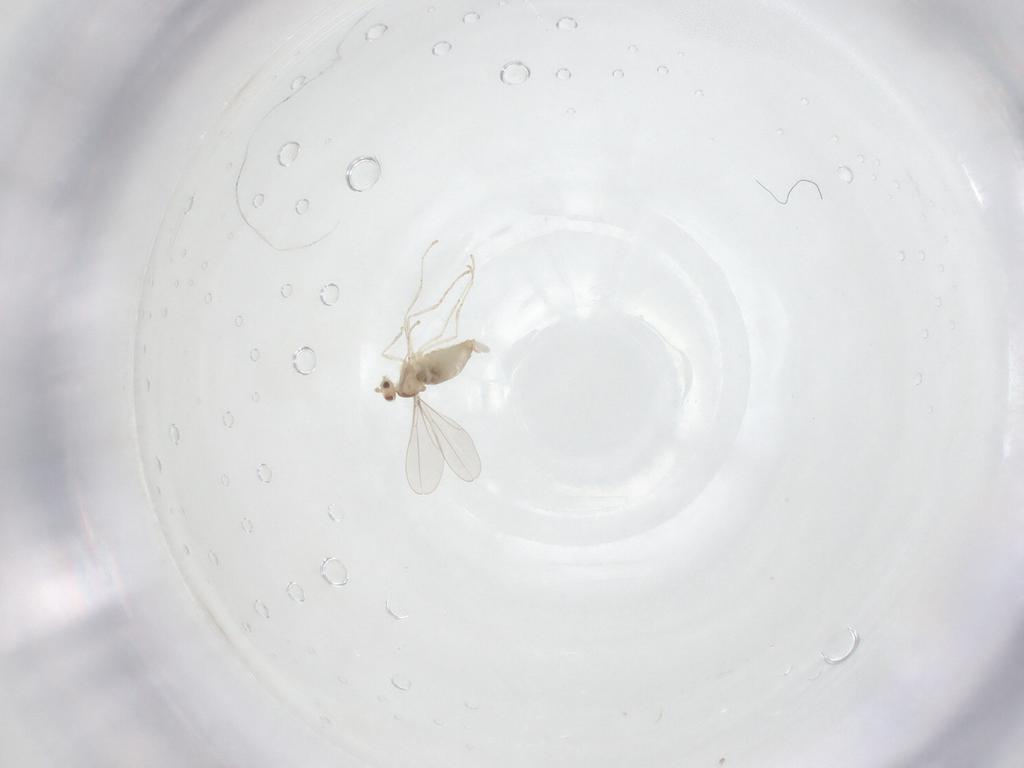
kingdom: Animalia
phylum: Arthropoda
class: Insecta
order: Diptera
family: Cecidomyiidae
